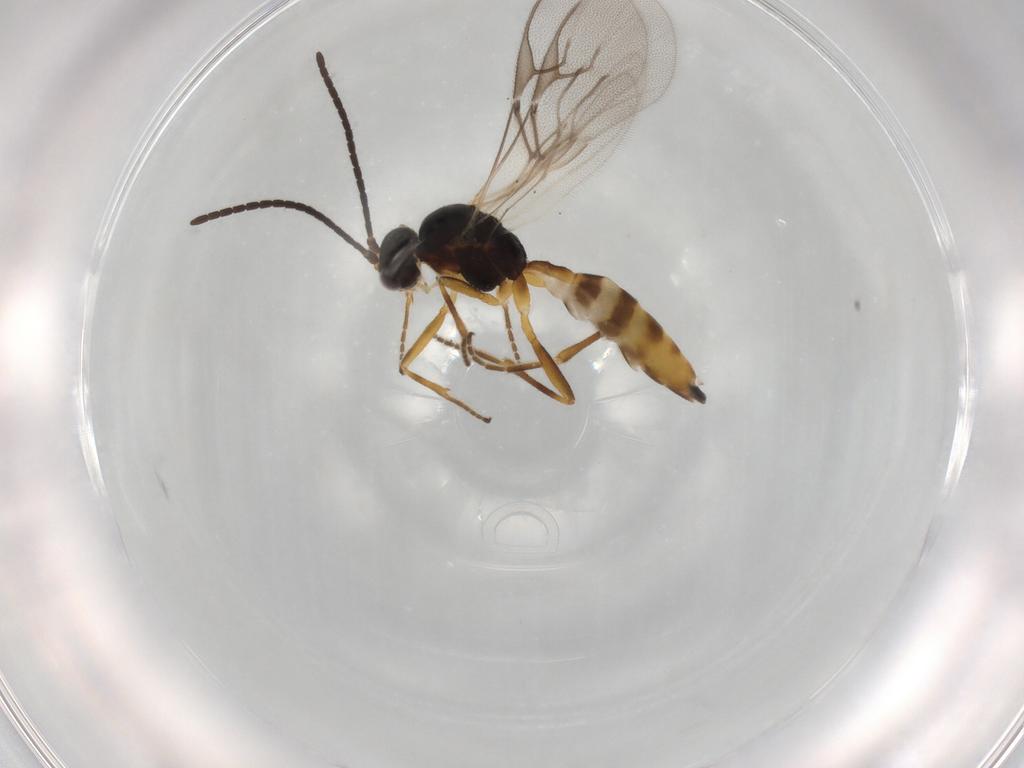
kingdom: Animalia
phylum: Arthropoda
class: Insecta
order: Hymenoptera
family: Braconidae
